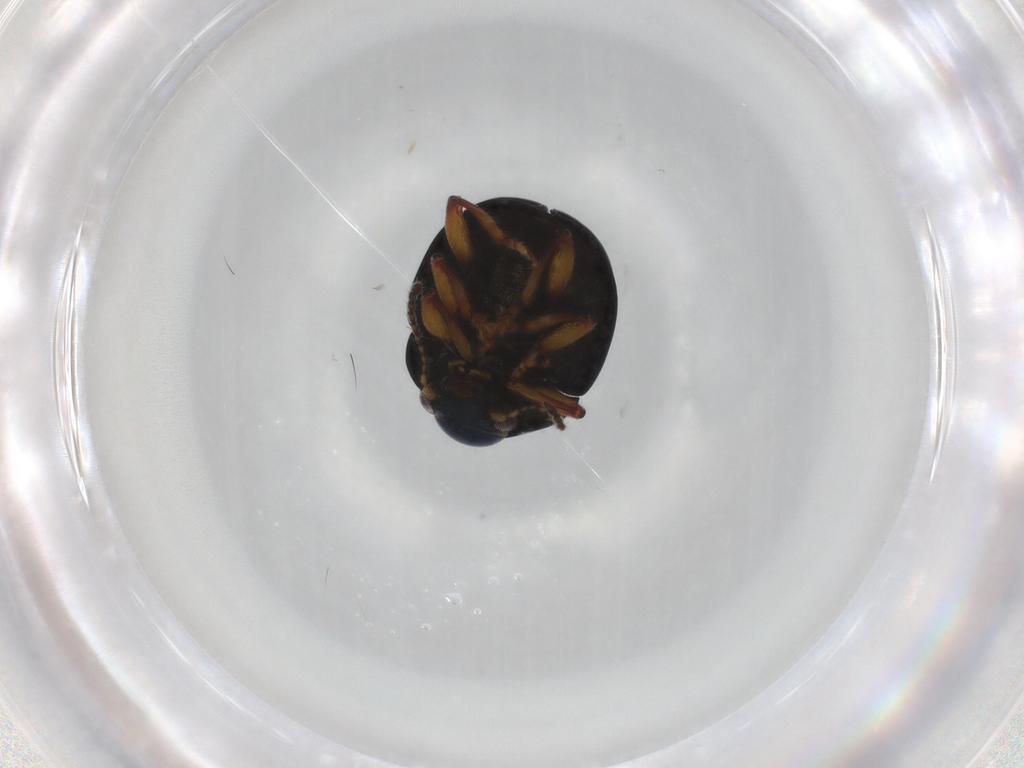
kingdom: Animalia
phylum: Arthropoda
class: Insecta
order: Coleoptera
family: Chrysomelidae
